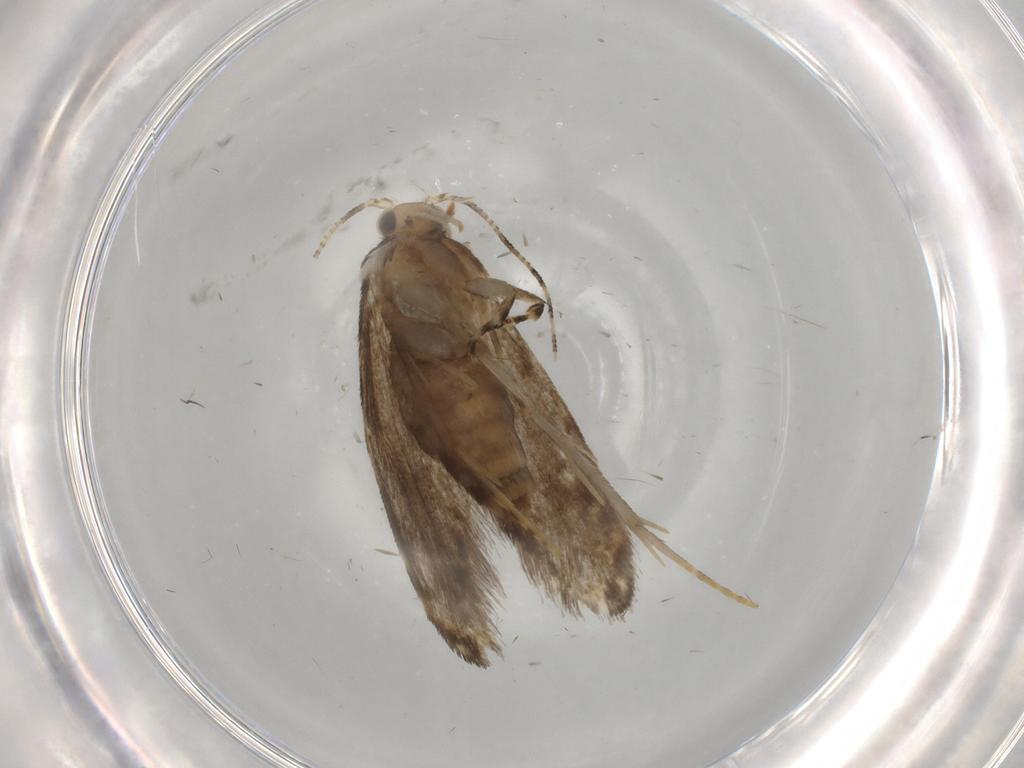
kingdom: Animalia
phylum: Arthropoda
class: Insecta
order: Lepidoptera
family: Tineidae
